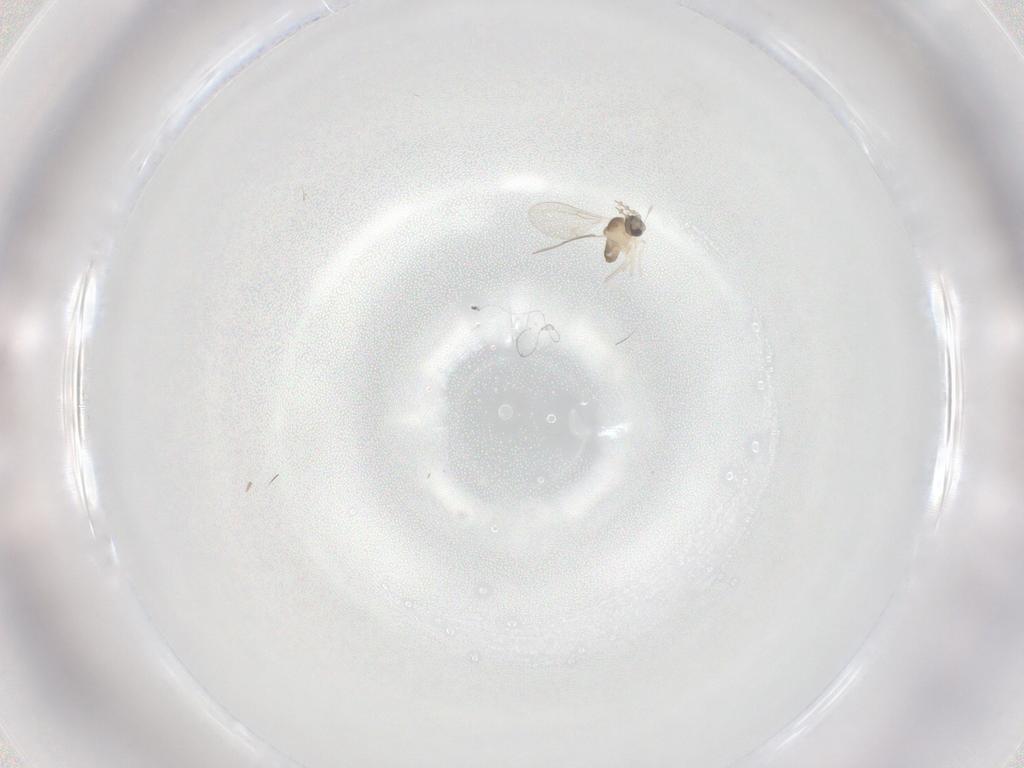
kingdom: Animalia
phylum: Arthropoda
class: Insecta
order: Diptera
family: Cecidomyiidae
